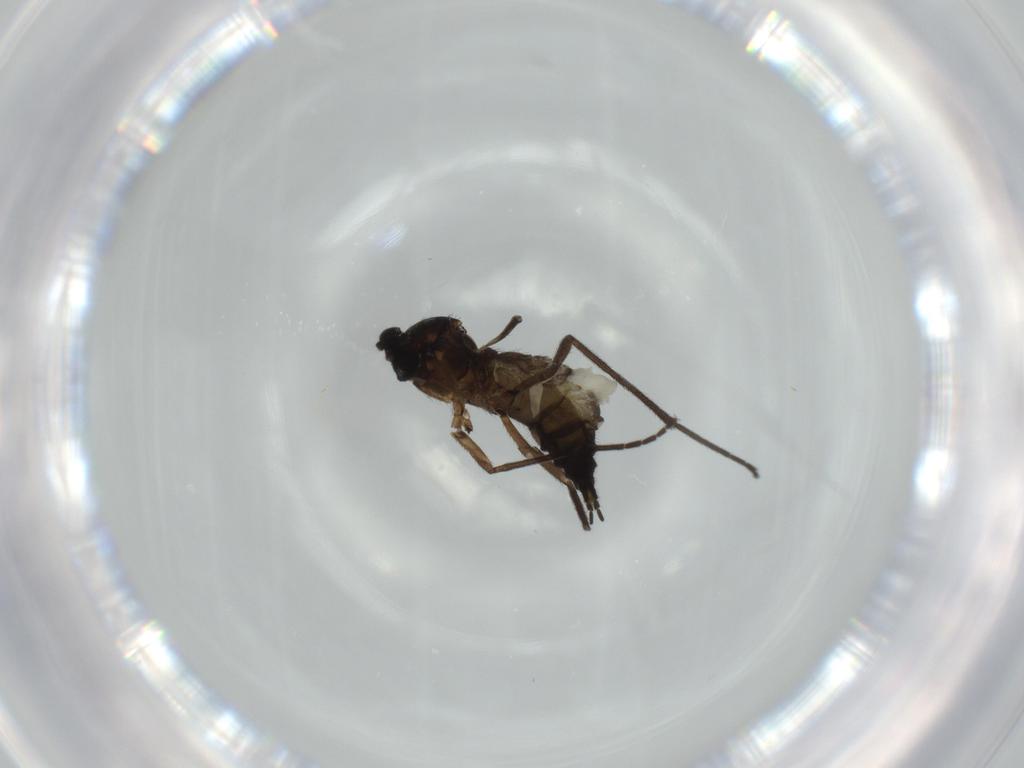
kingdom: Animalia
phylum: Arthropoda
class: Insecta
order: Diptera
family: Sciaridae
